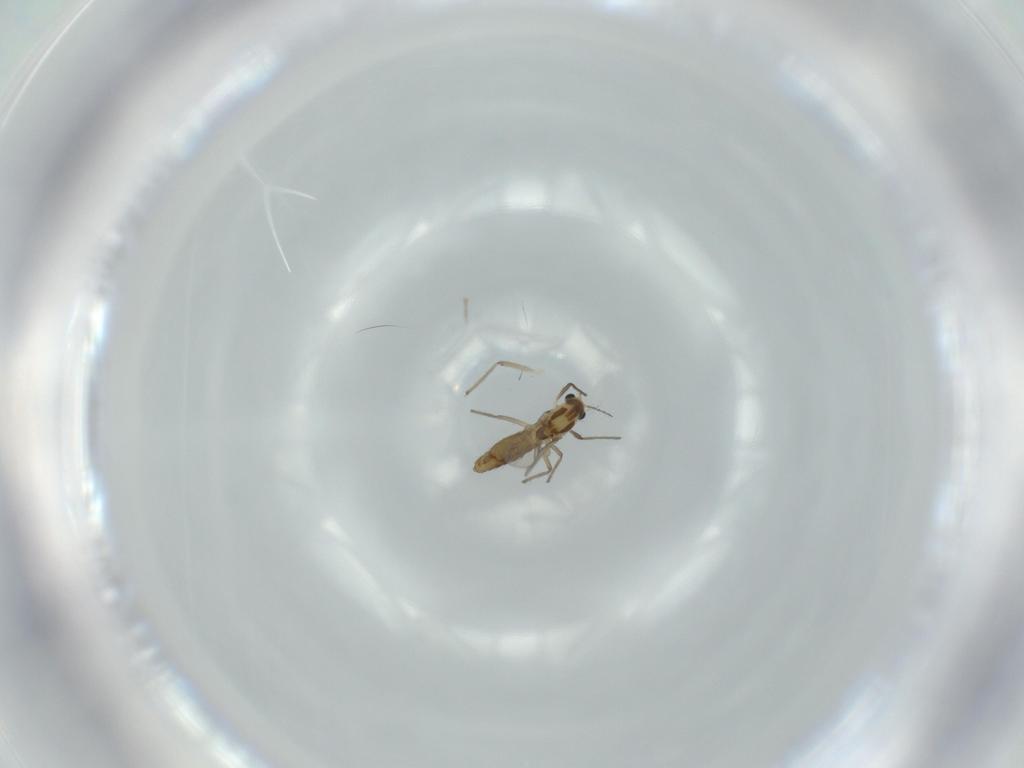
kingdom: Animalia
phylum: Arthropoda
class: Insecta
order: Diptera
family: Chironomidae
